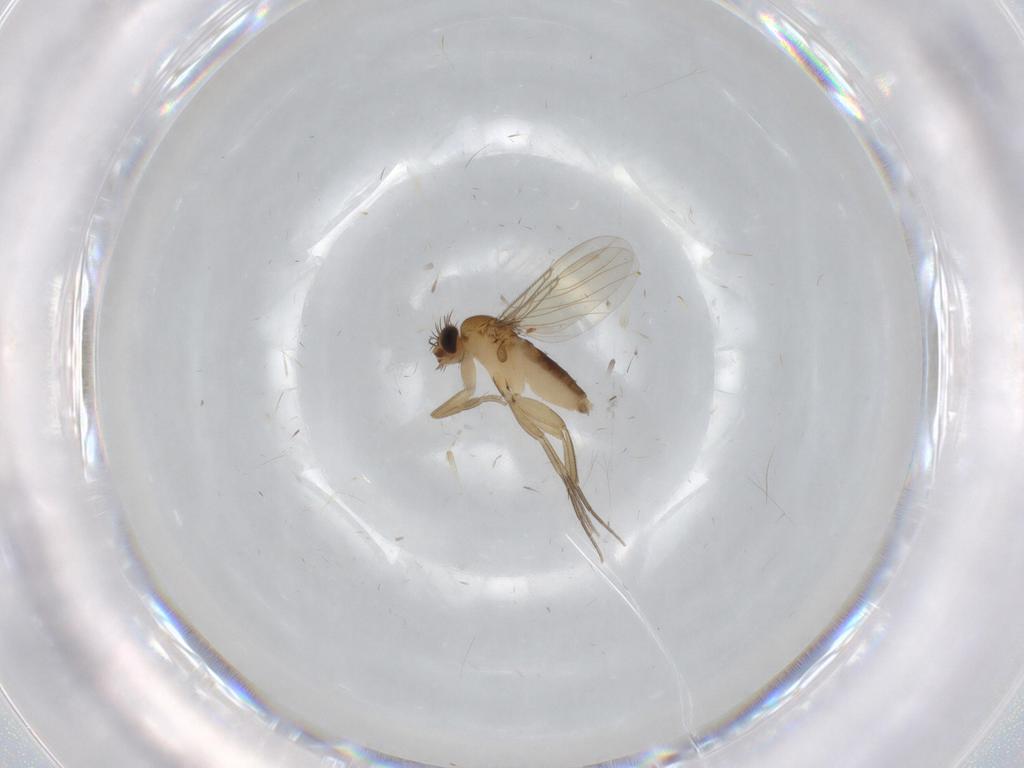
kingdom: Animalia
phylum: Arthropoda
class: Insecta
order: Diptera
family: Phoridae
